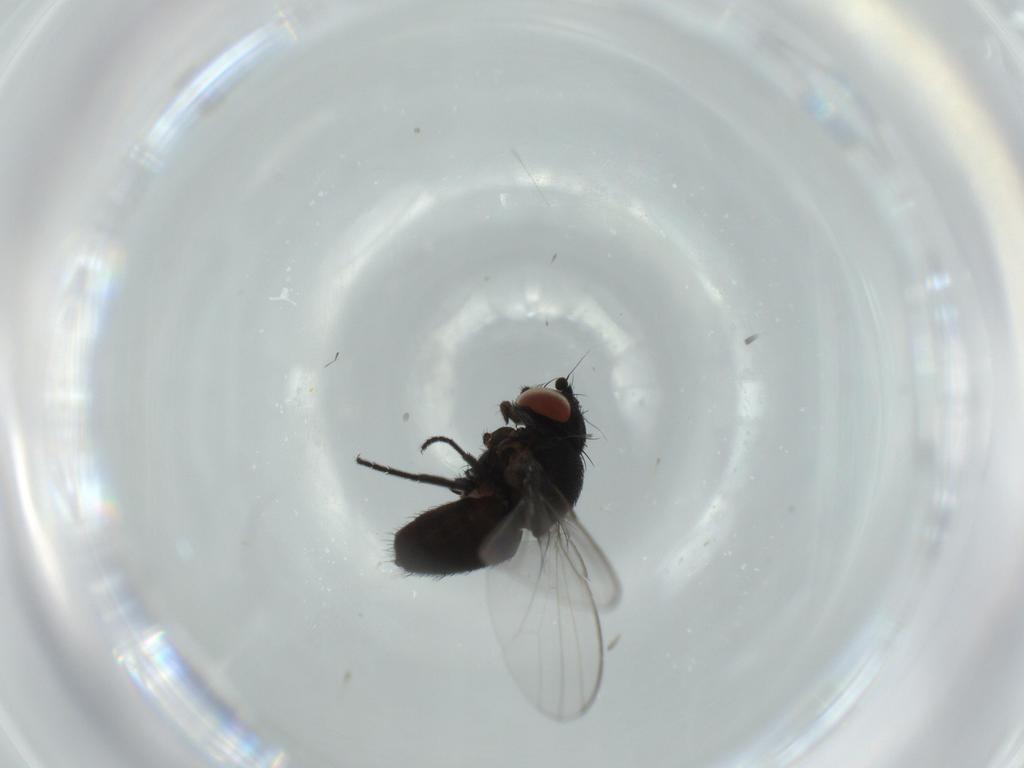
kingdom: Animalia
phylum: Arthropoda
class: Insecta
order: Diptera
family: Milichiidae
